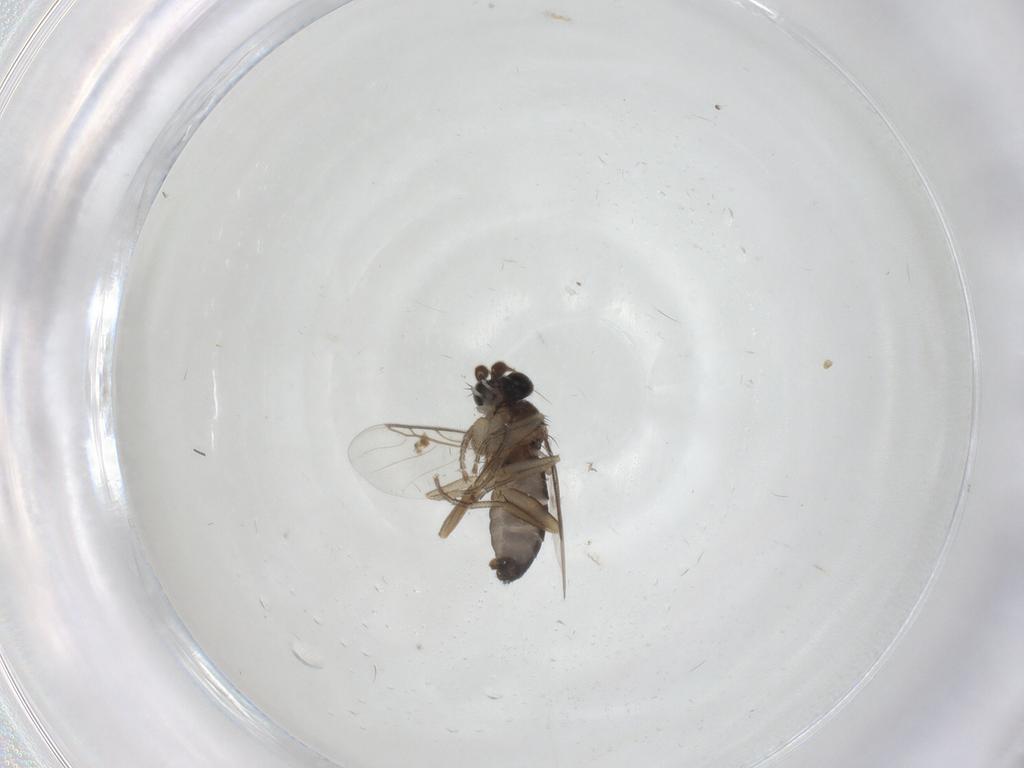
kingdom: Animalia
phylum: Arthropoda
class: Insecta
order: Diptera
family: Phoridae
